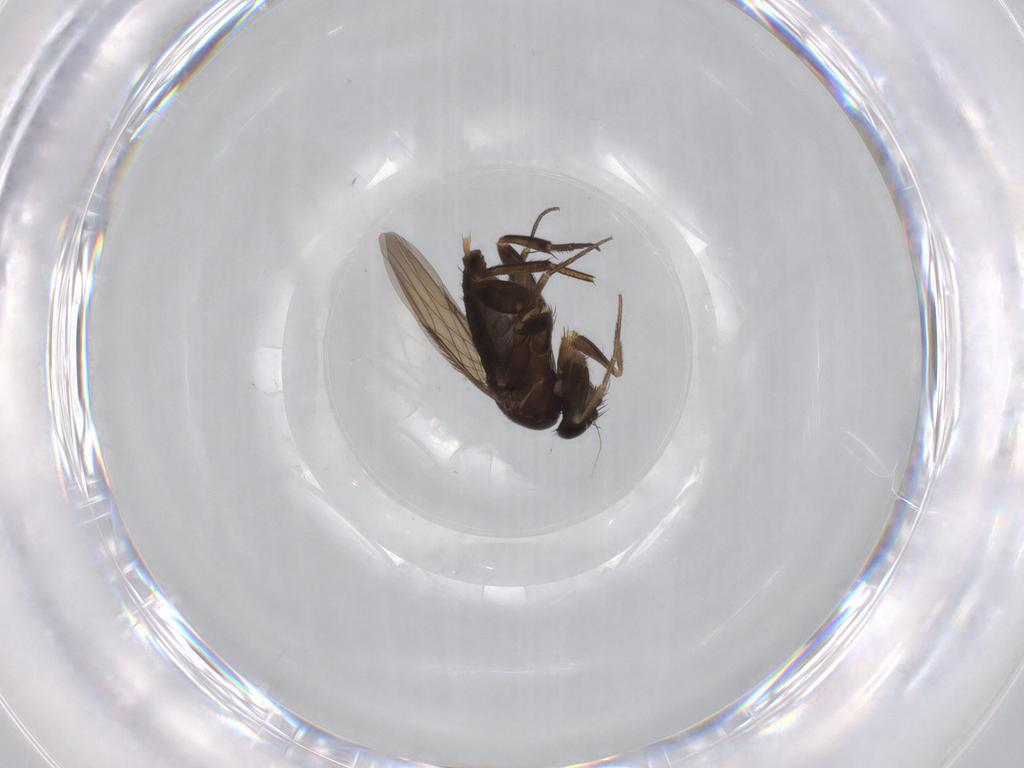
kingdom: Animalia
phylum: Arthropoda
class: Insecta
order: Diptera
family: Phoridae
